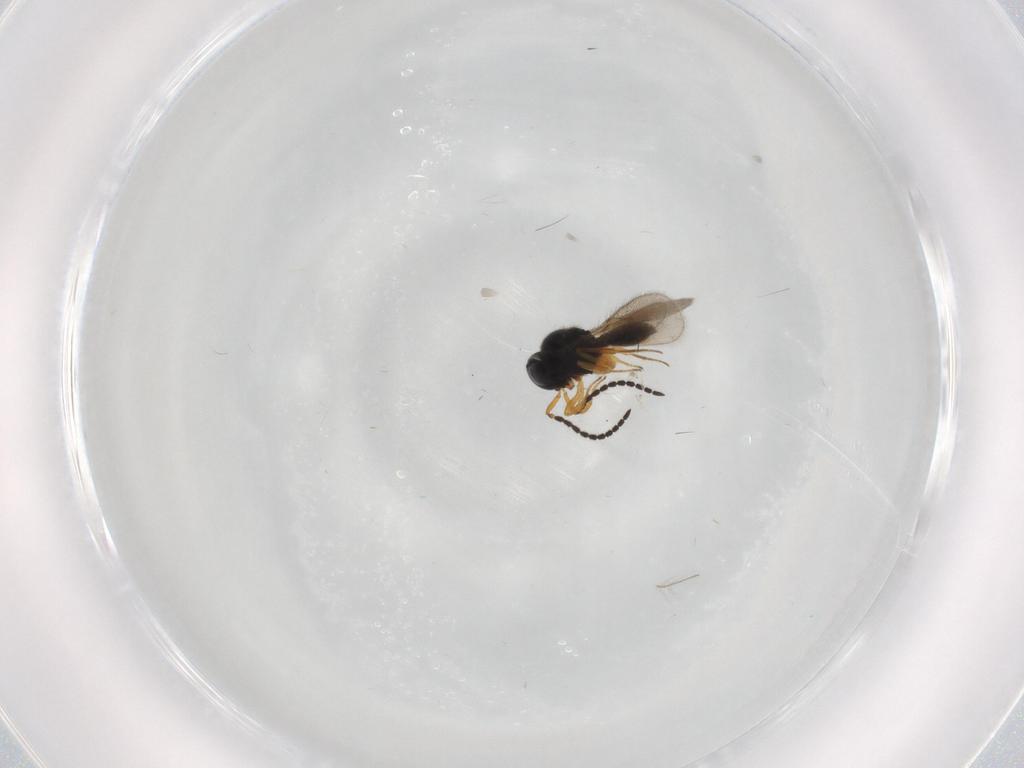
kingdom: Animalia
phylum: Arthropoda
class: Insecta
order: Hymenoptera
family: Scelionidae
